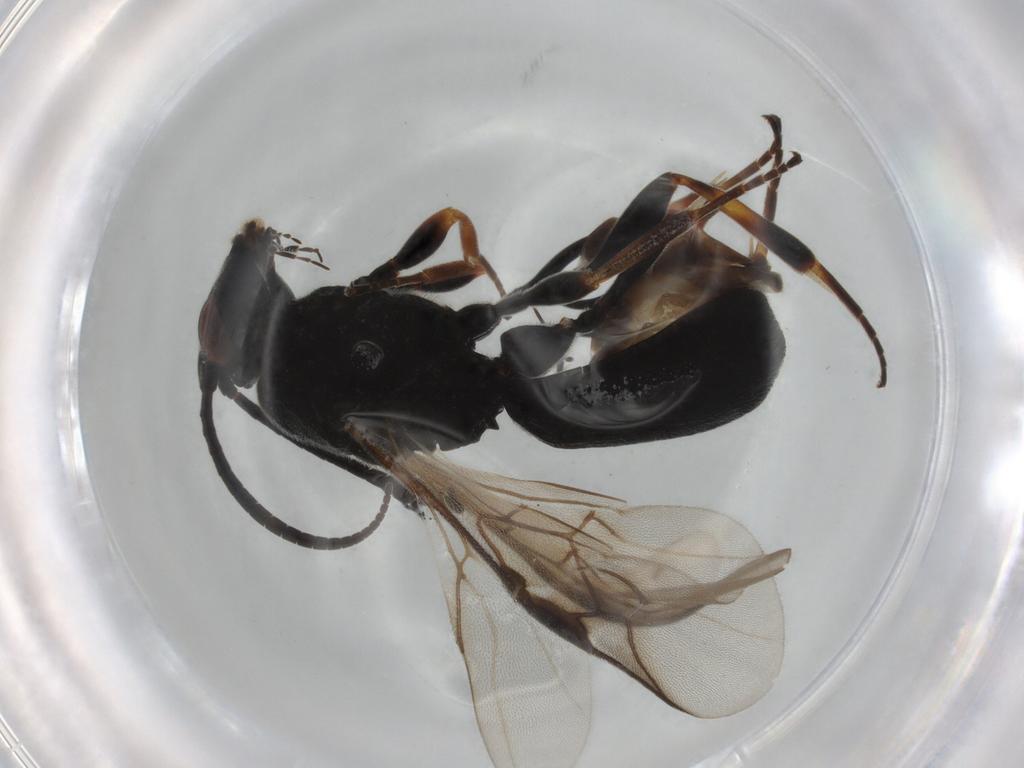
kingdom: Animalia
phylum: Arthropoda
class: Insecta
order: Hymenoptera
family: Braconidae
